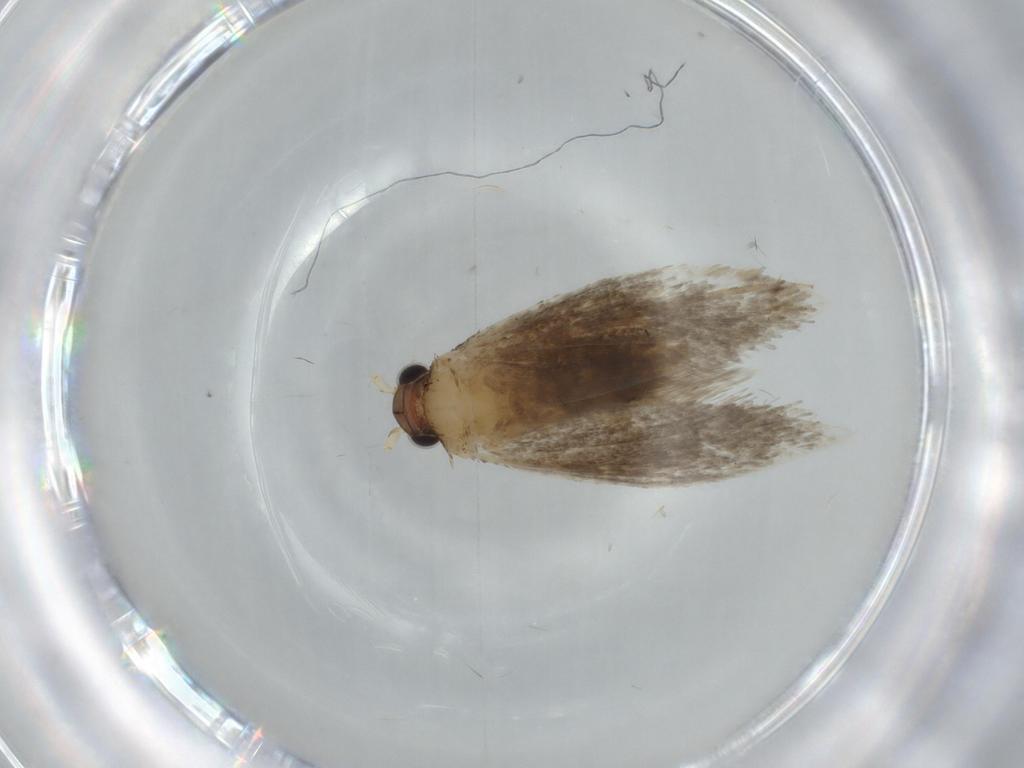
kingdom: Animalia
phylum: Arthropoda
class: Insecta
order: Lepidoptera
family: Tineidae
